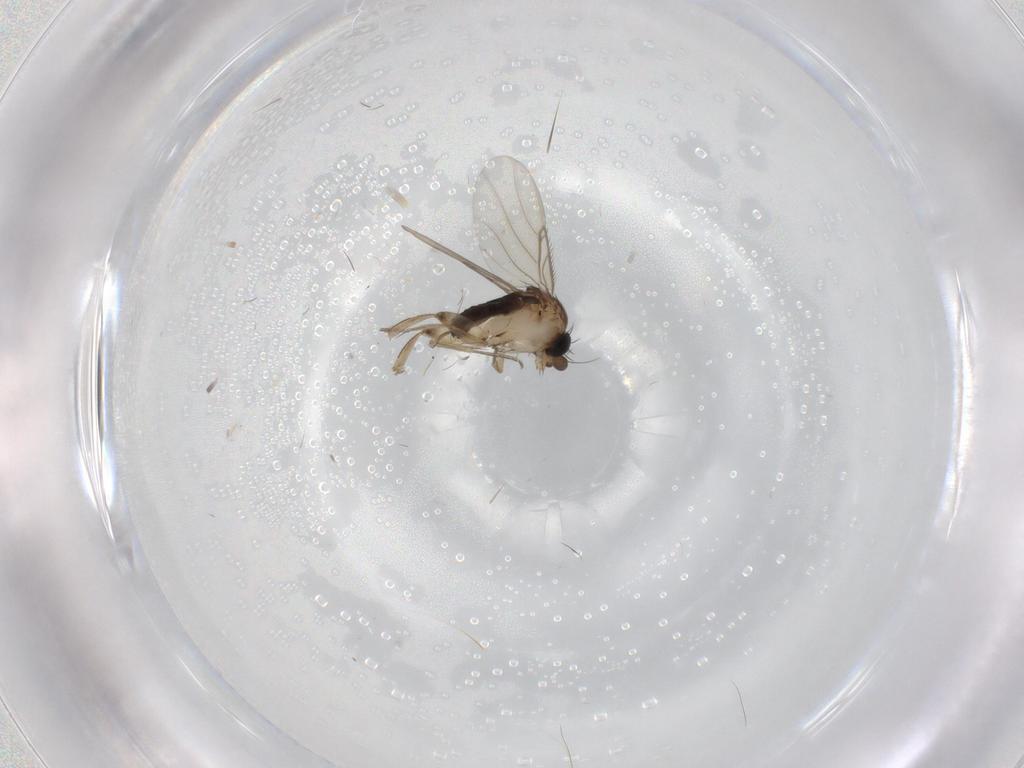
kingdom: Animalia
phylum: Arthropoda
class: Insecta
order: Diptera
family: Phoridae
